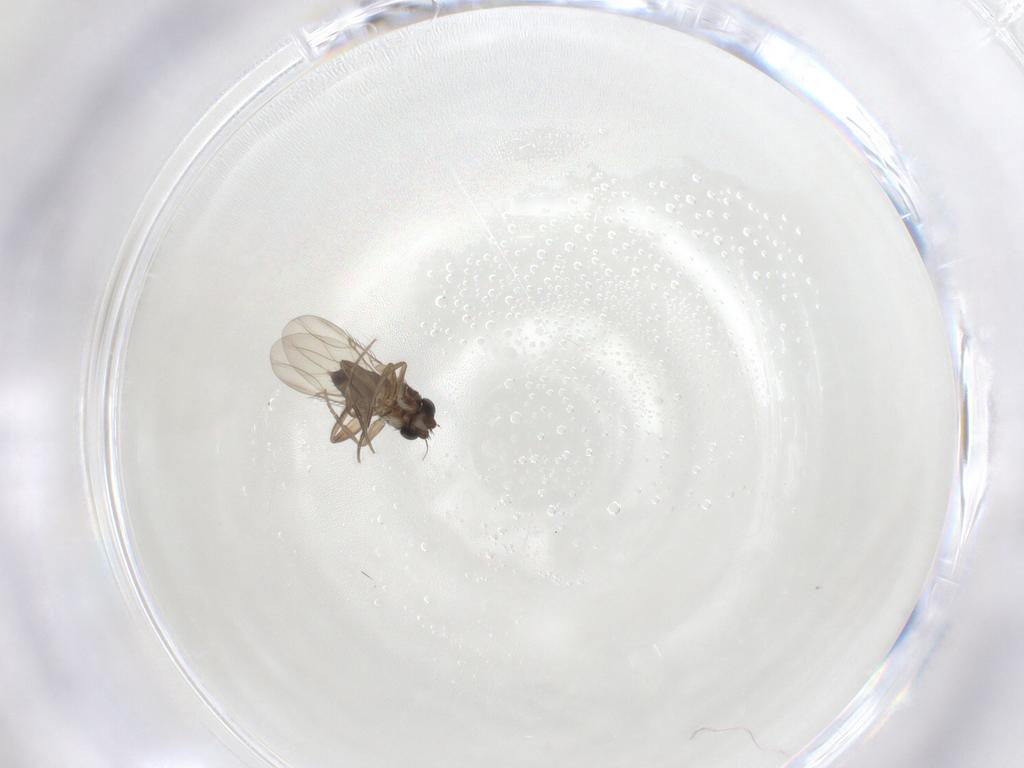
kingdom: Animalia
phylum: Arthropoda
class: Insecta
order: Diptera
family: Phoridae
